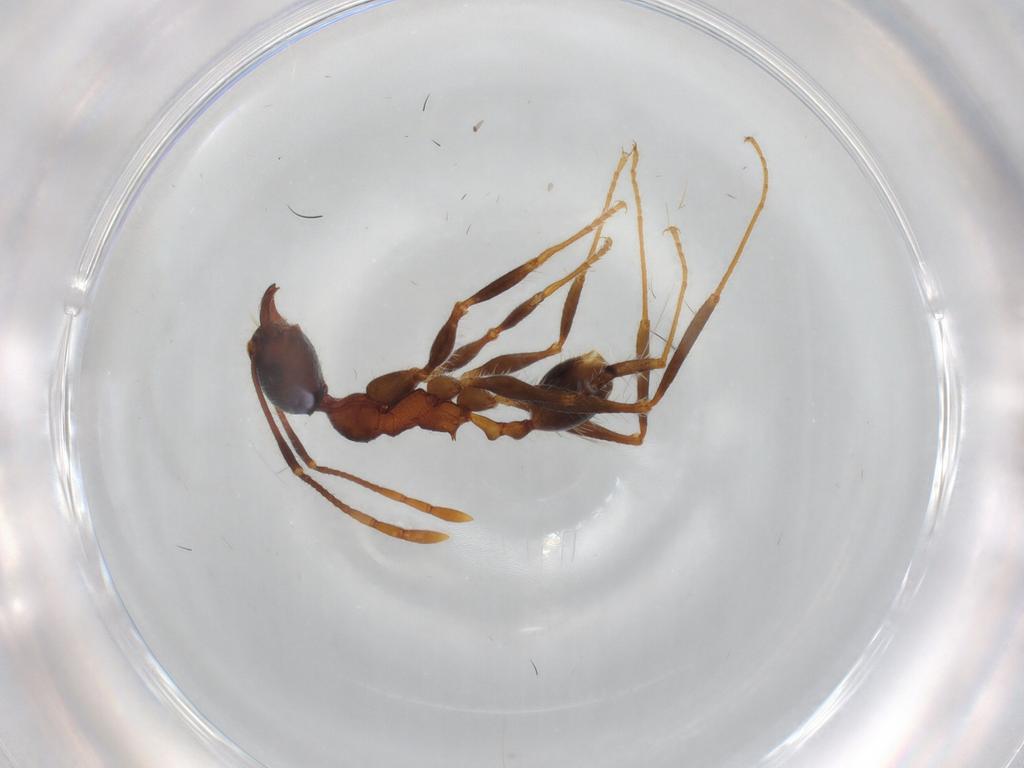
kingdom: Animalia
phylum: Arthropoda
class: Insecta
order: Hymenoptera
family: Formicidae
